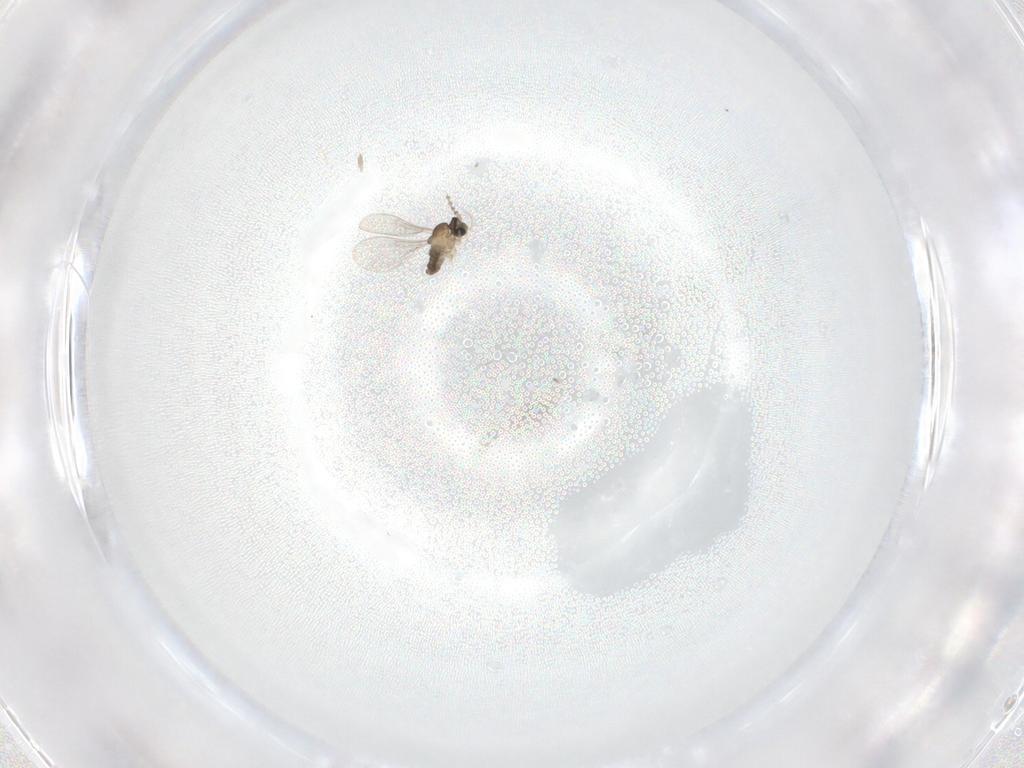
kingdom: Animalia
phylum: Arthropoda
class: Insecta
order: Diptera
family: Cecidomyiidae
